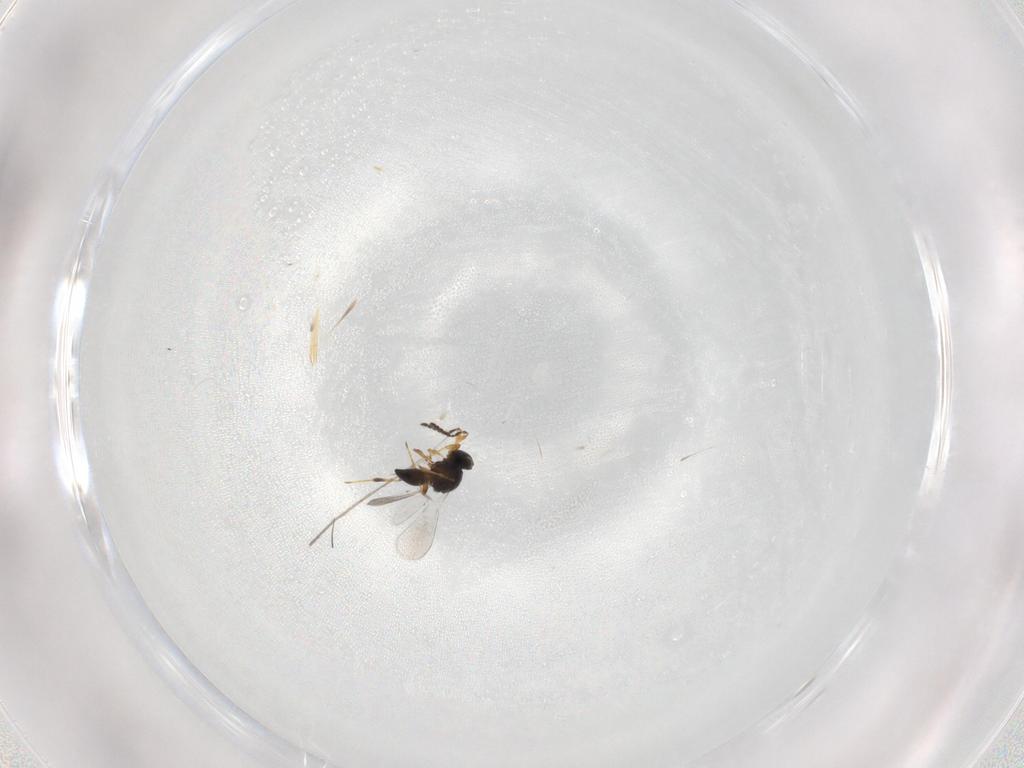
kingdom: Animalia
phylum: Arthropoda
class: Insecta
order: Hymenoptera
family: Platygastridae
